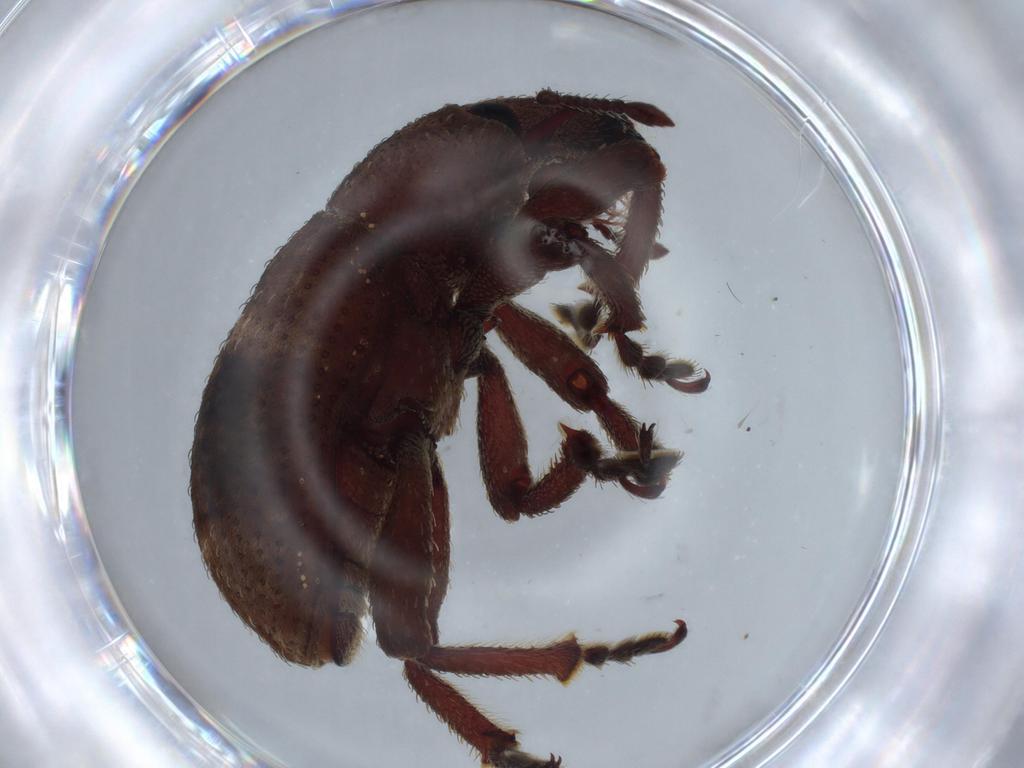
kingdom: Animalia
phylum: Arthropoda
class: Insecta
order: Coleoptera
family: Curculionidae
